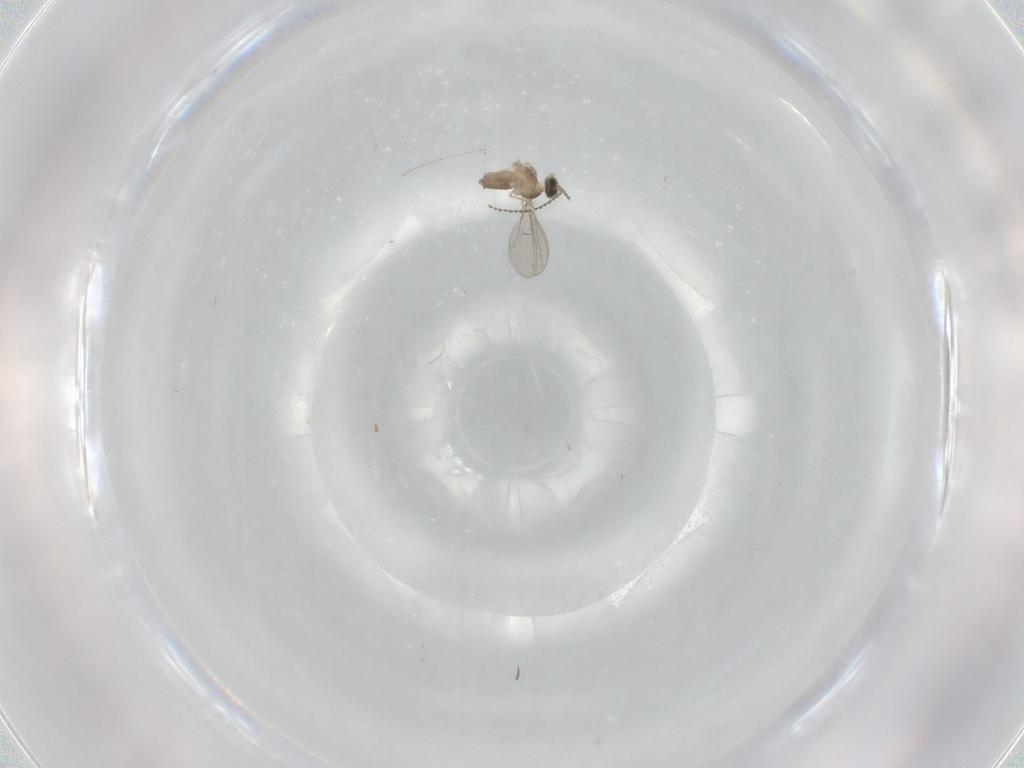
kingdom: Animalia
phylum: Arthropoda
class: Insecta
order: Diptera
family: Cecidomyiidae
